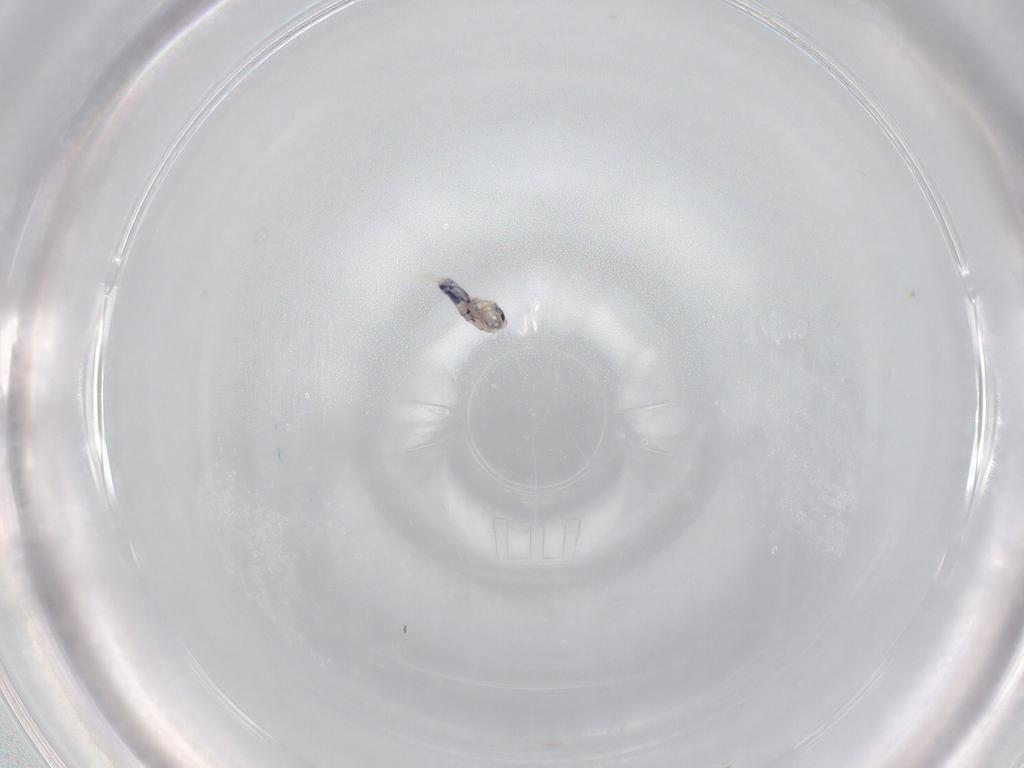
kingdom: Animalia
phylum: Arthropoda
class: Collembola
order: Entomobryomorpha
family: Entomobryidae
